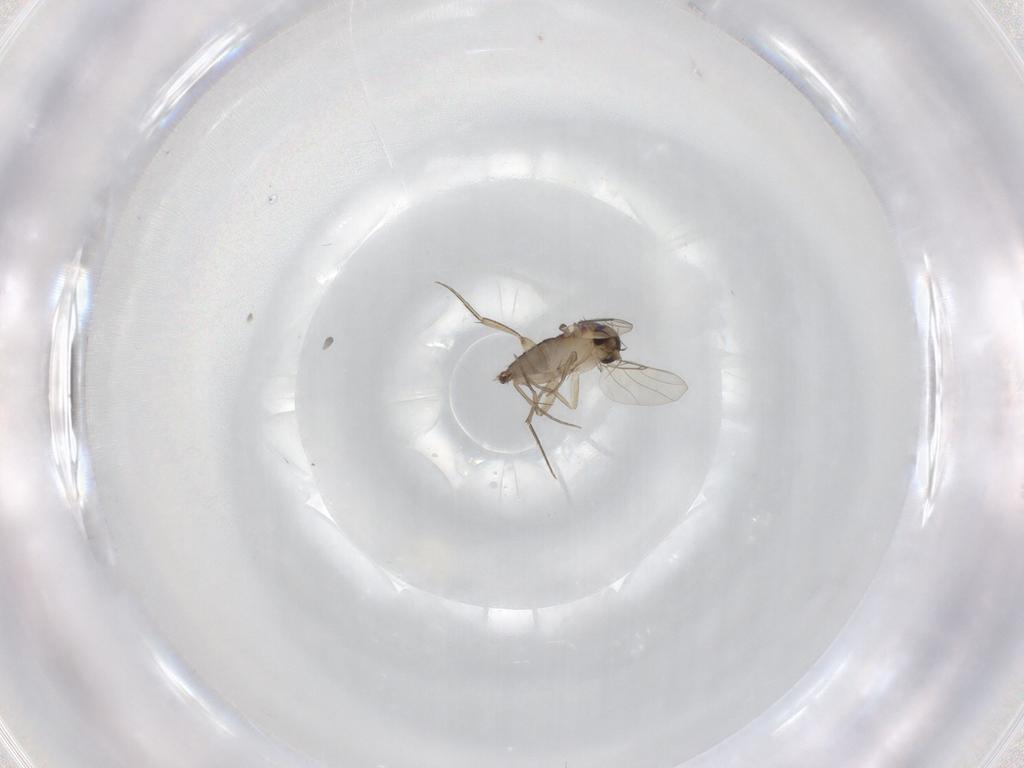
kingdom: Animalia
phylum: Arthropoda
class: Insecta
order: Diptera
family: Phoridae
